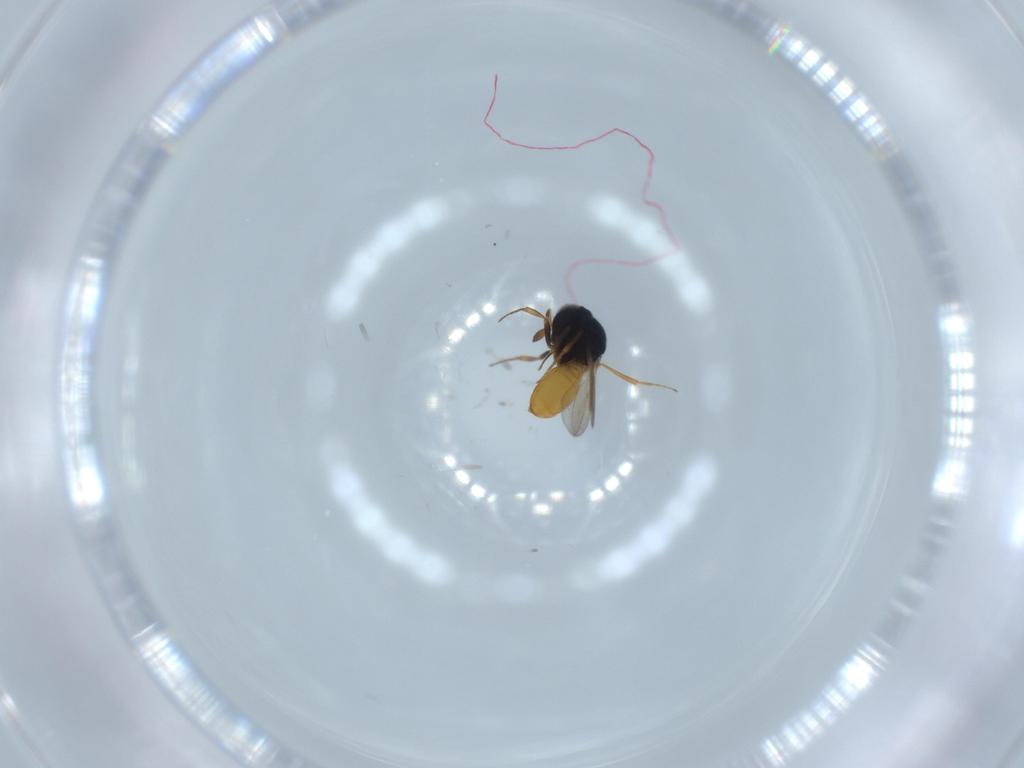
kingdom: Animalia
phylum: Arthropoda
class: Insecta
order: Hymenoptera
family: Scelionidae
